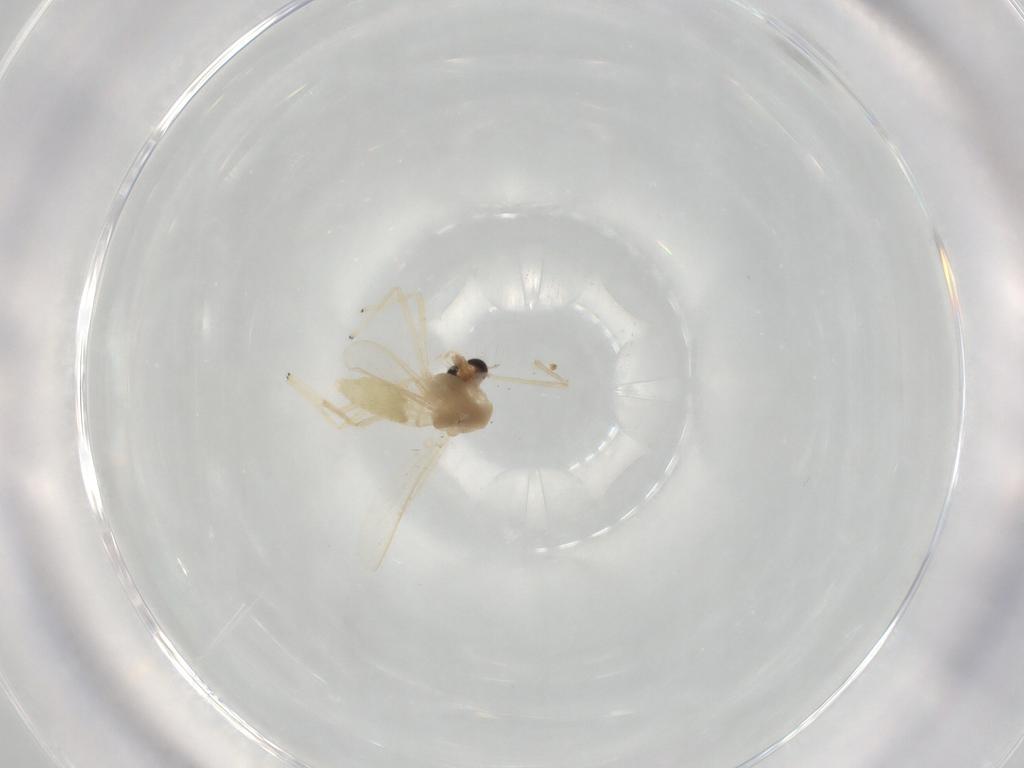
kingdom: Animalia
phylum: Arthropoda
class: Insecta
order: Diptera
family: Chironomidae
